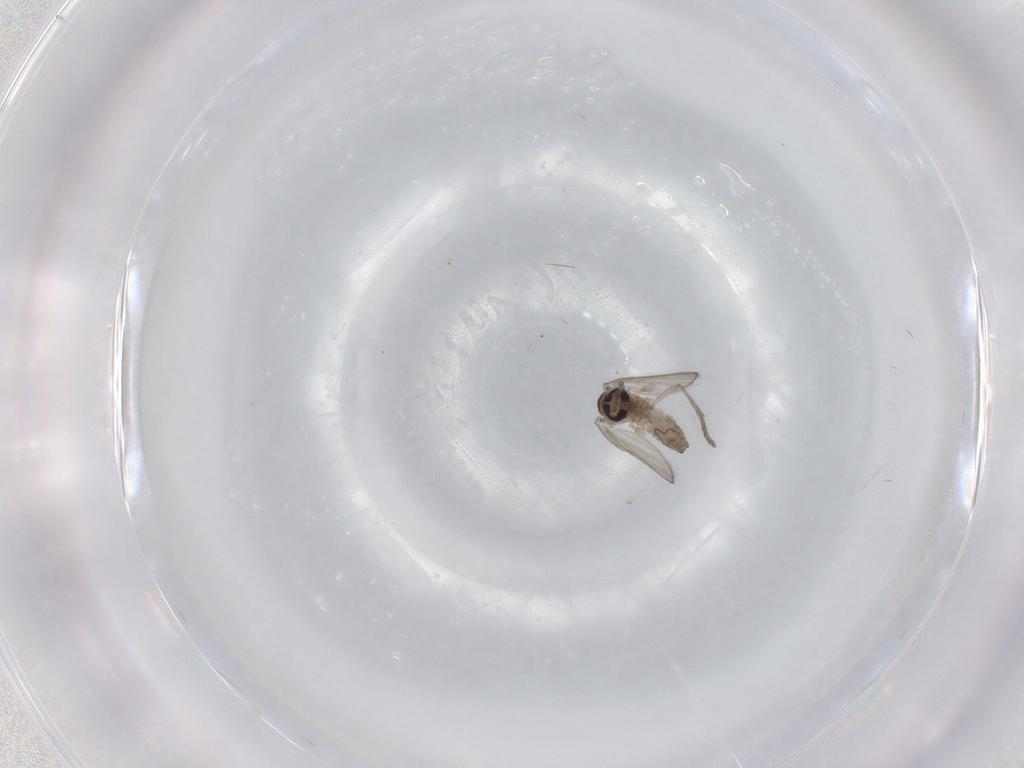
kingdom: Animalia
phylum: Arthropoda
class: Insecta
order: Diptera
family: Psychodidae
